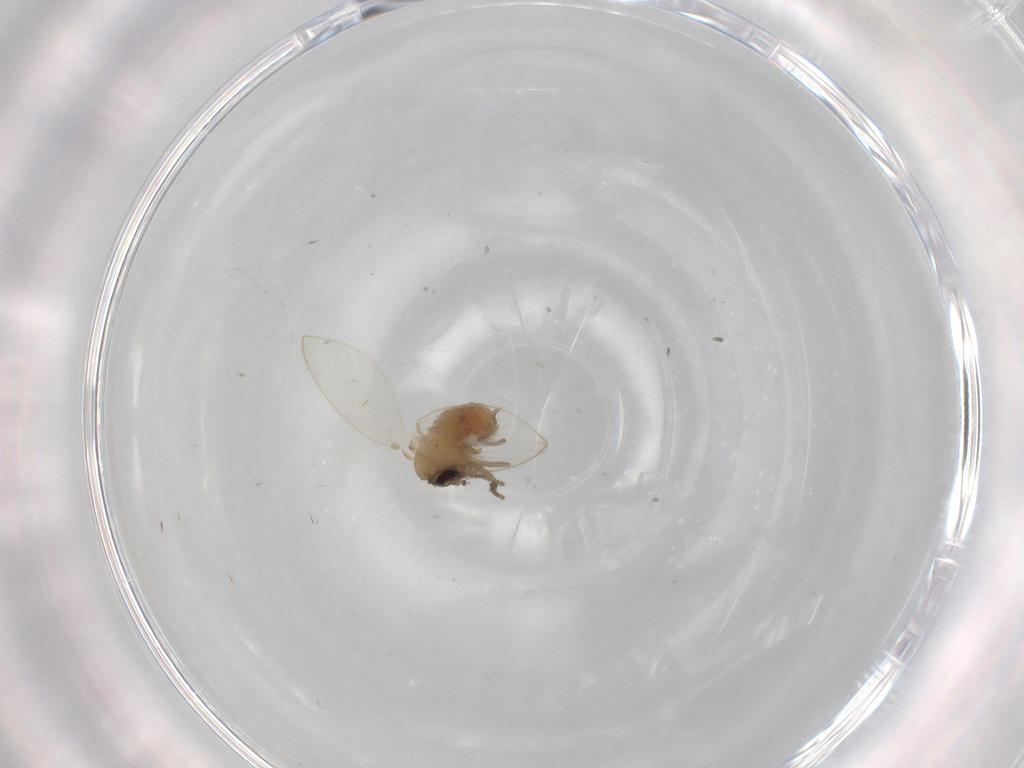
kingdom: Animalia
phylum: Arthropoda
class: Insecta
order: Diptera
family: Psychodidae
